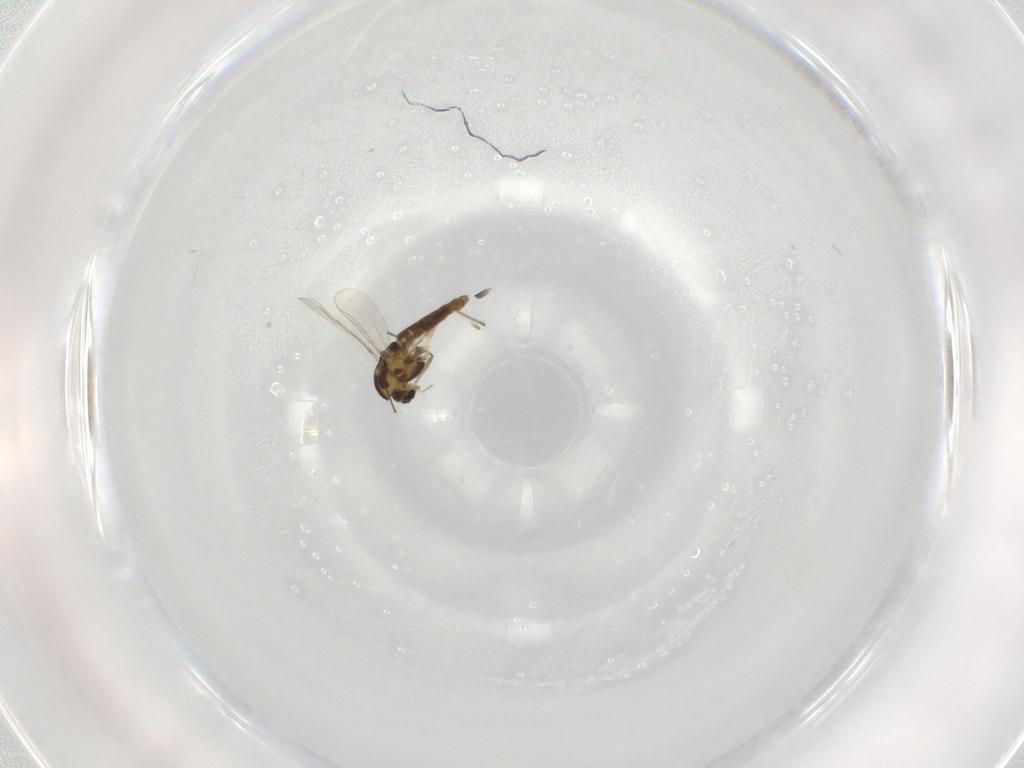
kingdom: Animalia
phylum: Arthropoda
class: Insecta
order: Diptera
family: Chironomidae
